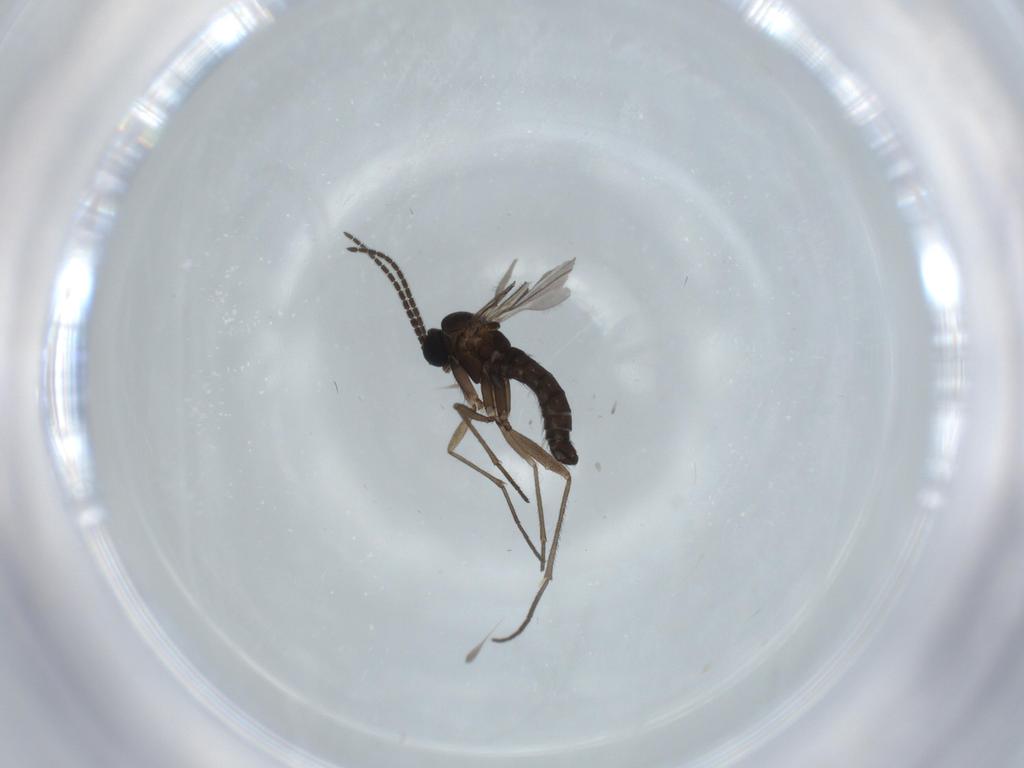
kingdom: Animalia
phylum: Arthropoda
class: Insecta
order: Diptera
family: Sciaridae
